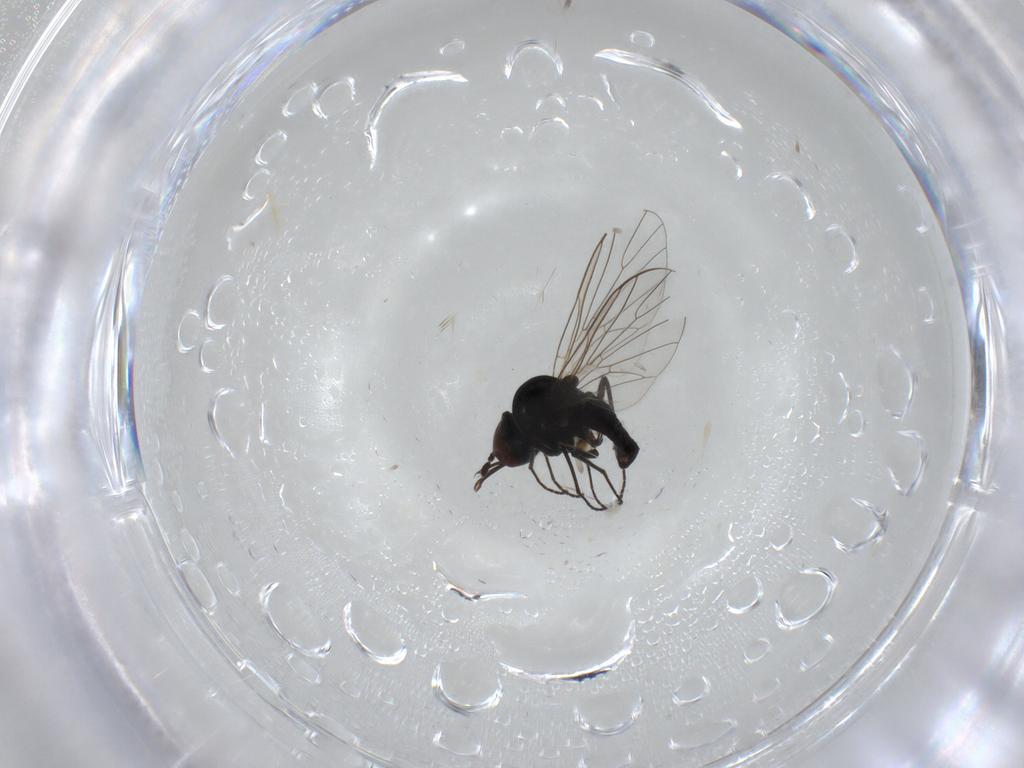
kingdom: Animalia
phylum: Arthropoda
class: Insecta
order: Diptera
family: Bombyliidae
